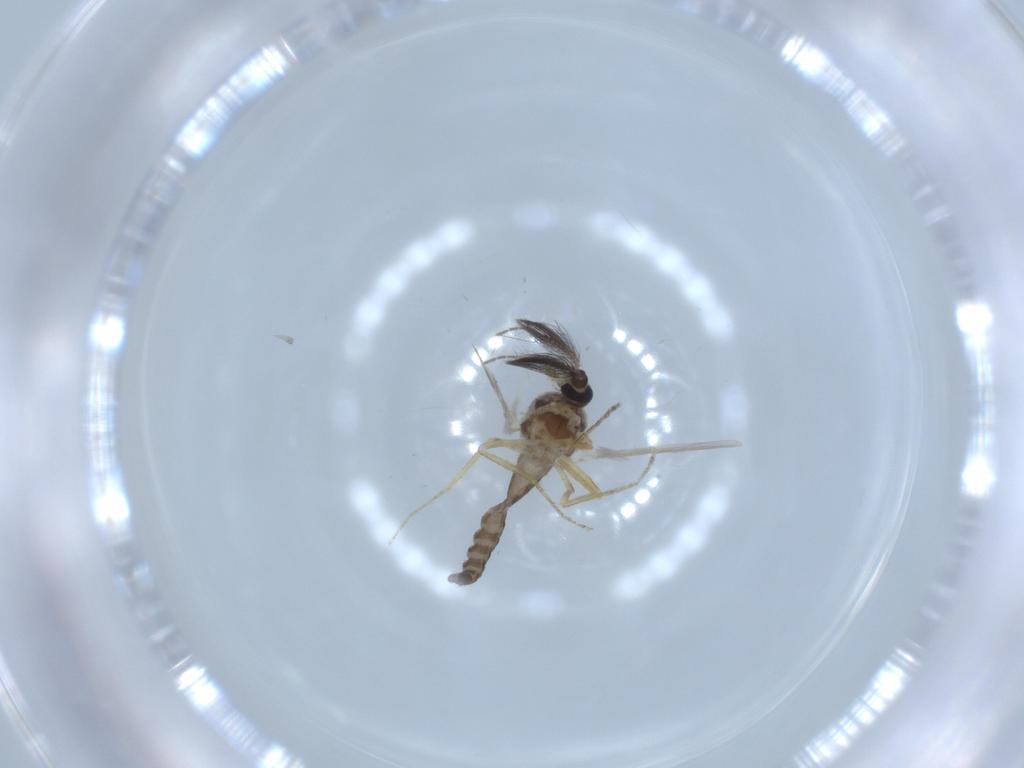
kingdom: Animalia
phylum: Arthropoda
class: Insecta
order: Diptera
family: Ceratopogonidae
